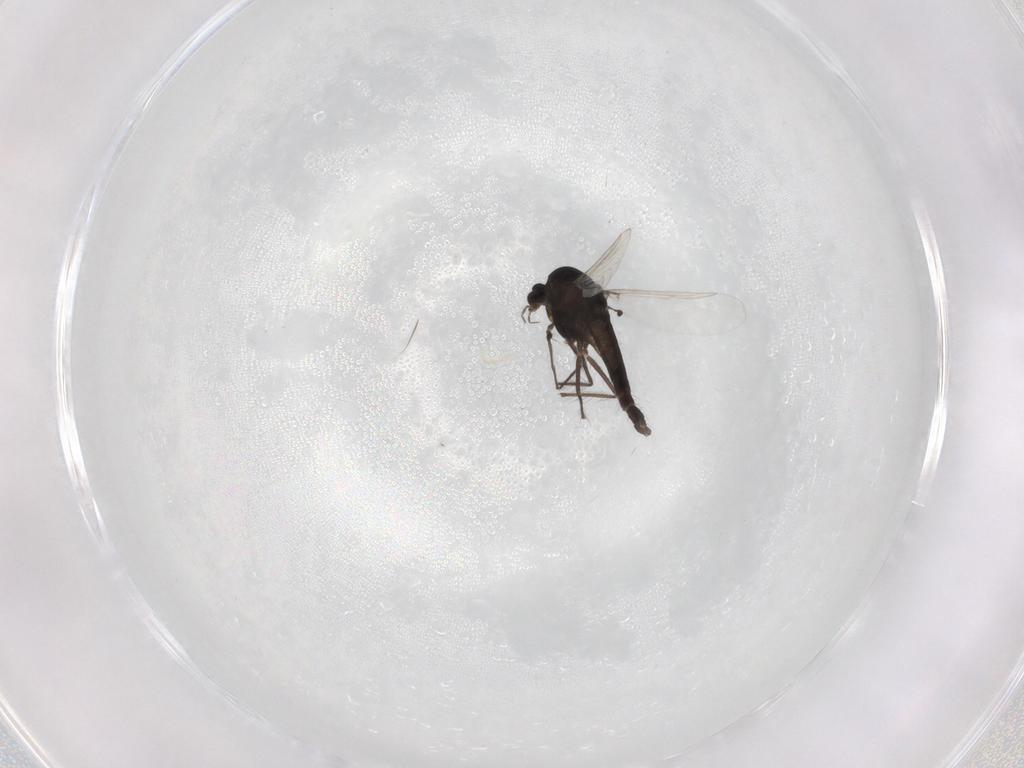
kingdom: Animalia
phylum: Arthropoda
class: Insecta
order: Diptera
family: Chironomidae
